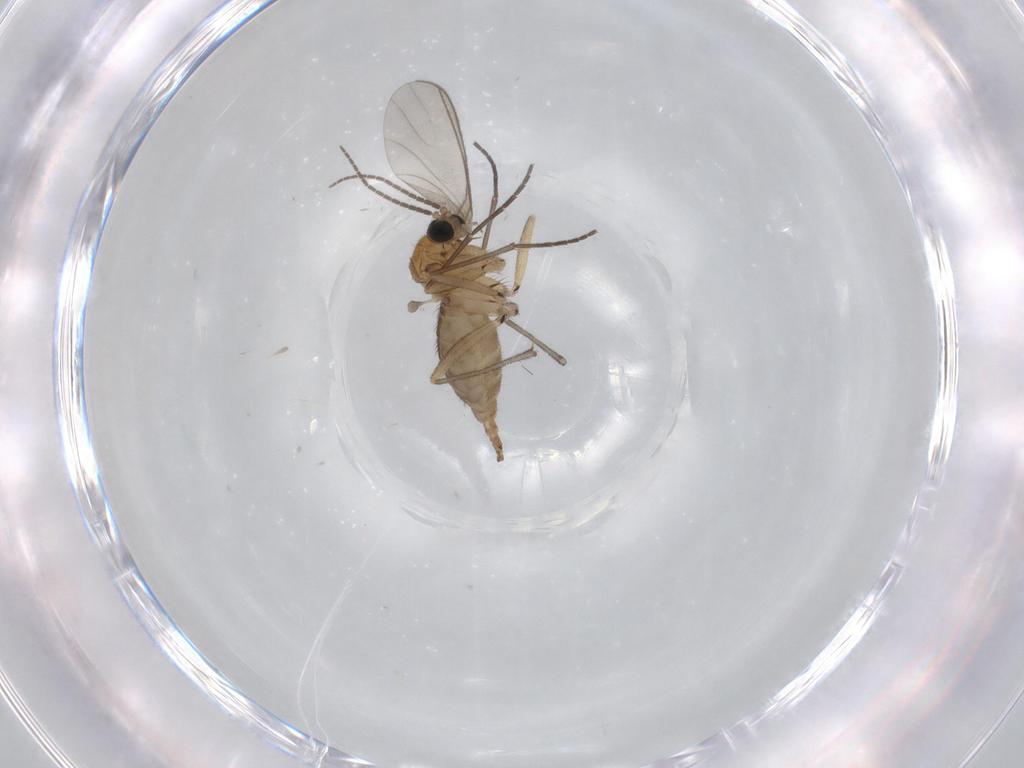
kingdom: Animalia
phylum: Arthropoda
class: Insecta
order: Diptera
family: Sciaridae
